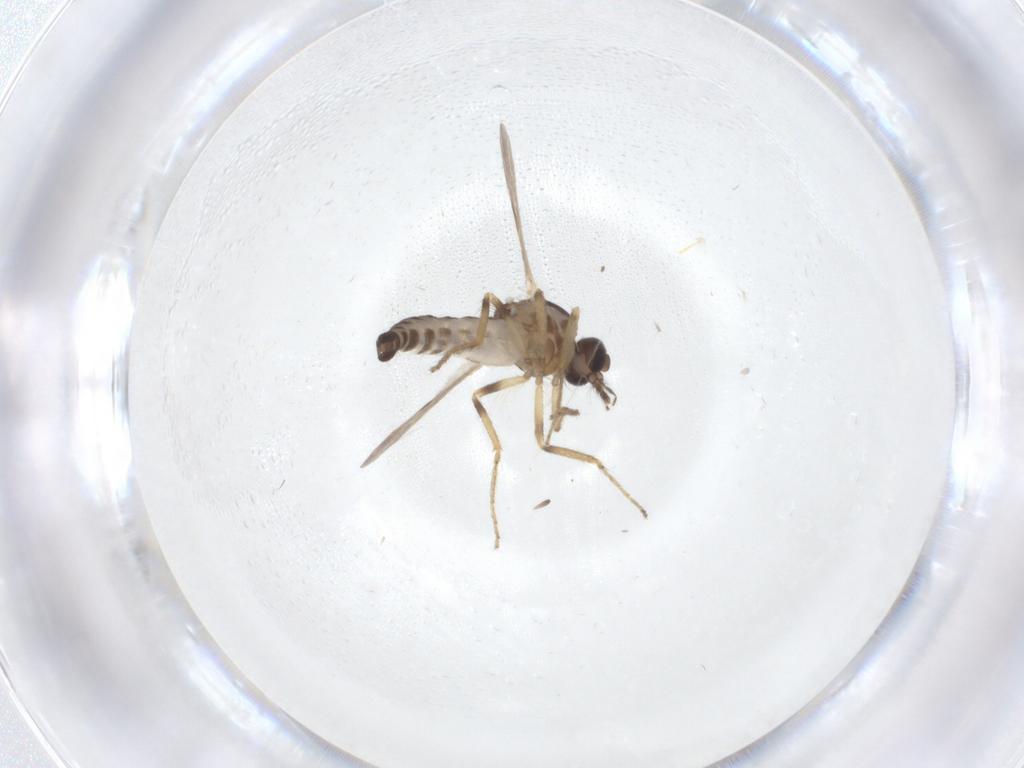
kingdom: Animalia
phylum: Arthropoda
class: Insecta
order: Diptera
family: Ceratopogonidae
